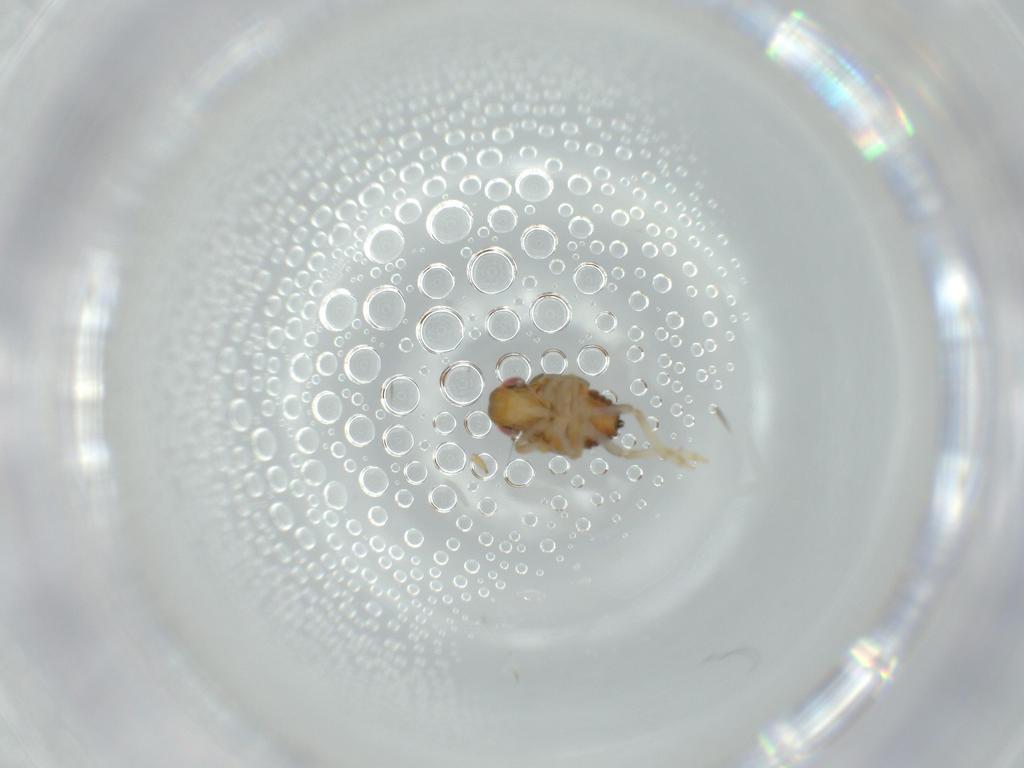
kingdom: Animalia
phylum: Arthropoda
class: Insecta
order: Hemiptera
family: Issidae
